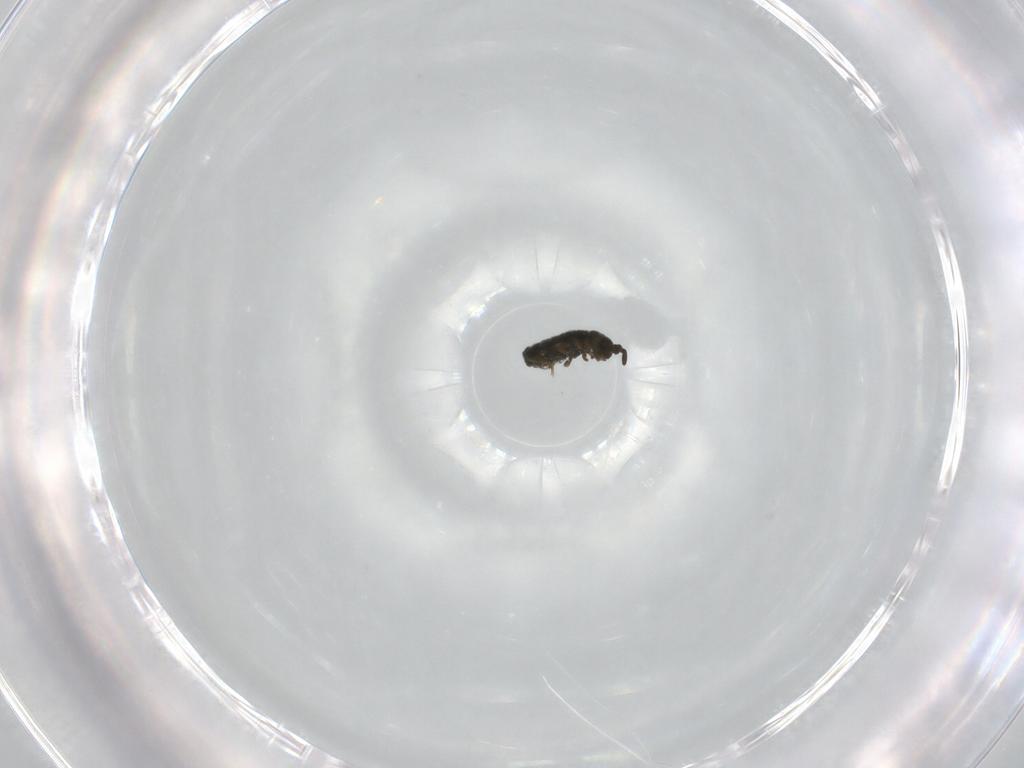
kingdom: Animalia
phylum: Arthropoda
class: Collembola
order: Entomobryomorpha
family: Isotomidae
